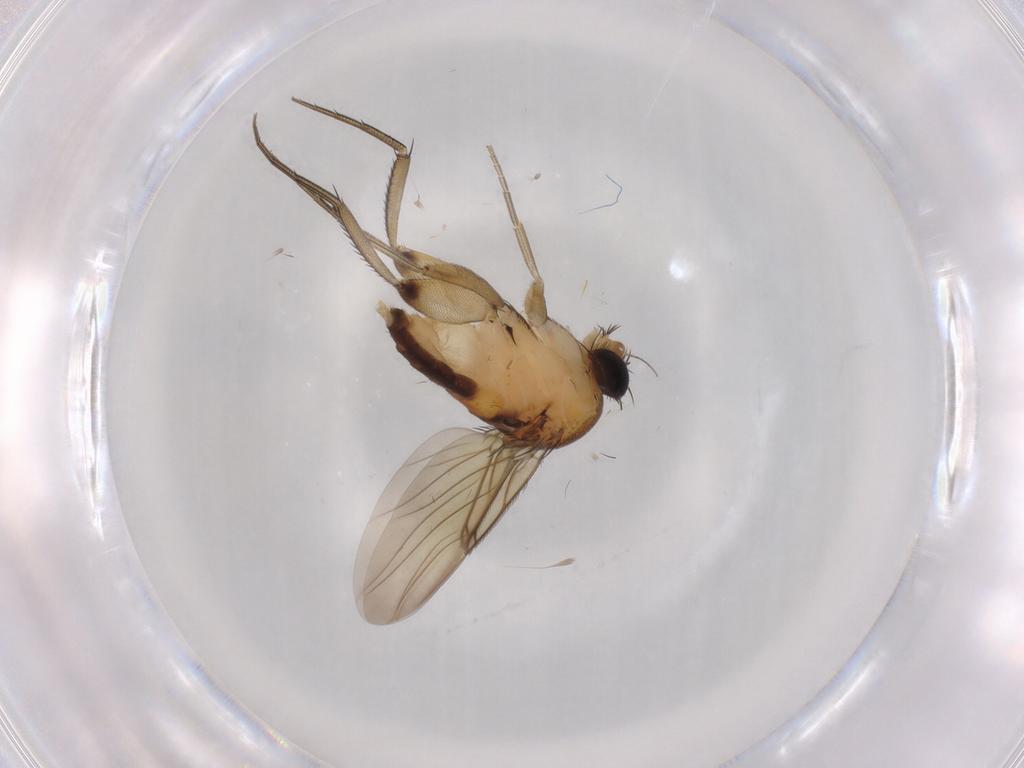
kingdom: Animalia
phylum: Arthropoda
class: Insecta
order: Diptera
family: Phoridae
